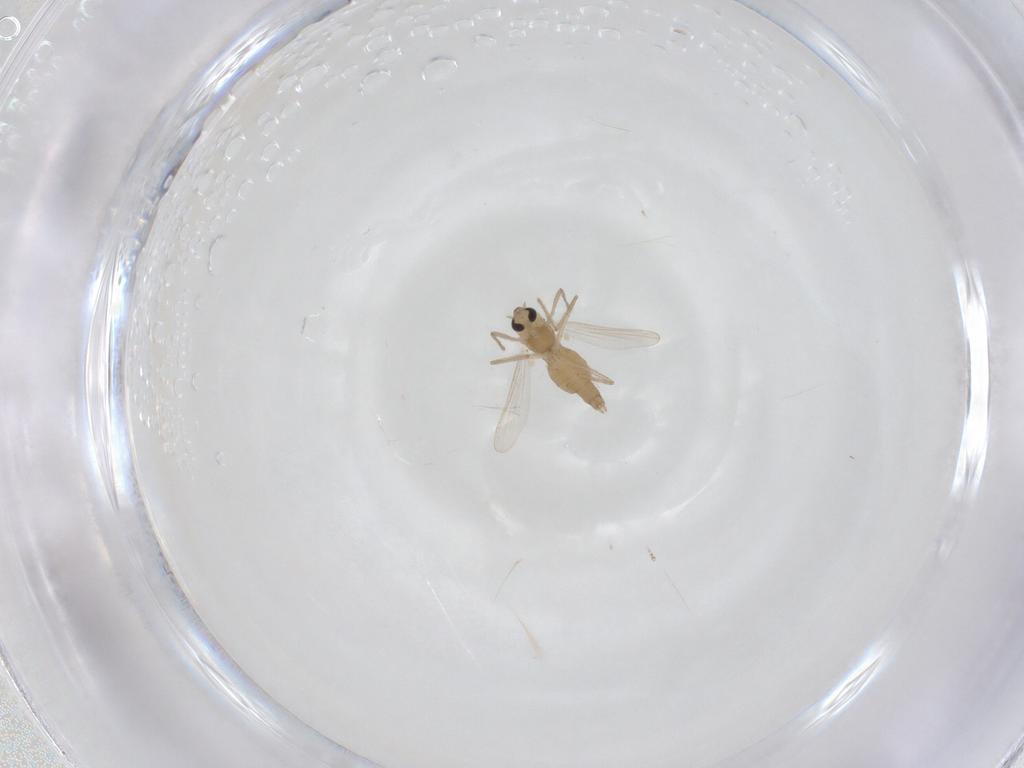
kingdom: Animalia
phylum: Arthropoda
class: Insecta
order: Diptera
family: Chironomidae
